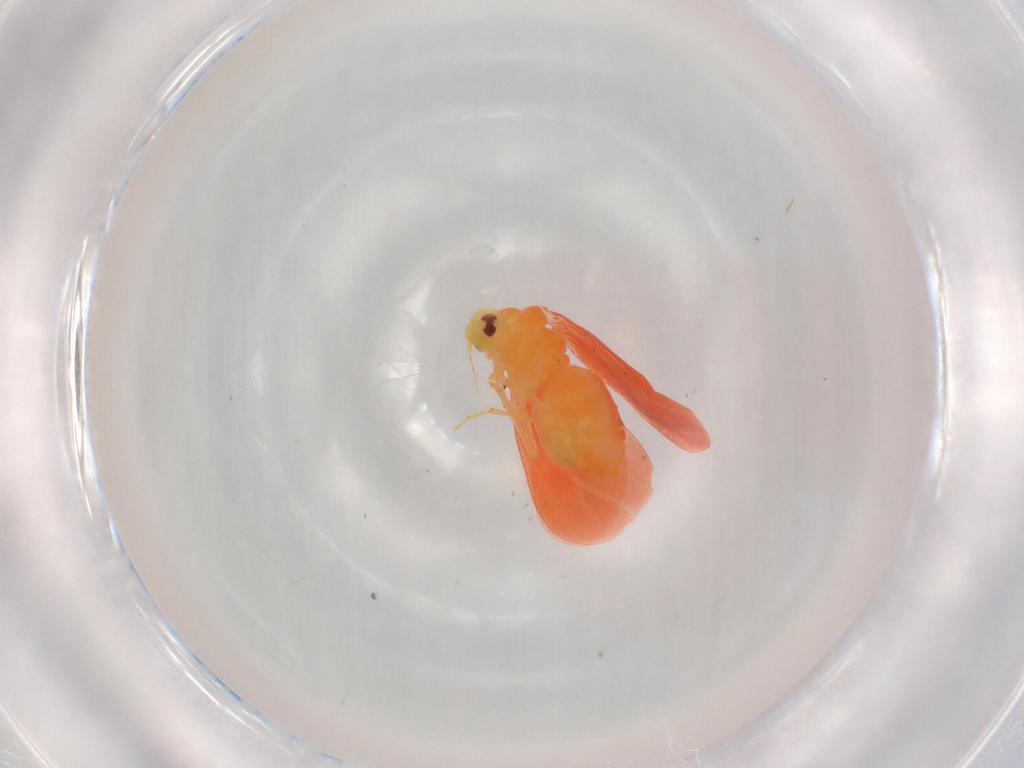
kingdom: Animalia
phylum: Arthropoda
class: Insecta
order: Hemiptera
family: Aleyrodidae
